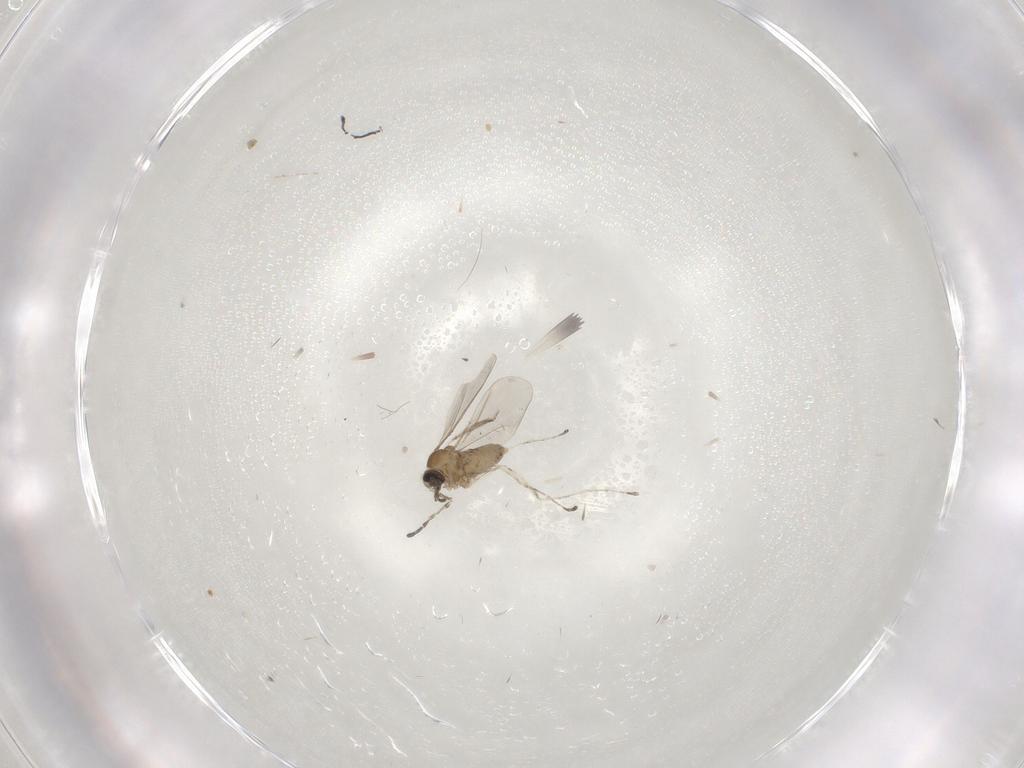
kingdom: Animalia
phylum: Arthropoda
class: Insecta
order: Diptera
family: Cecidomyiidae
